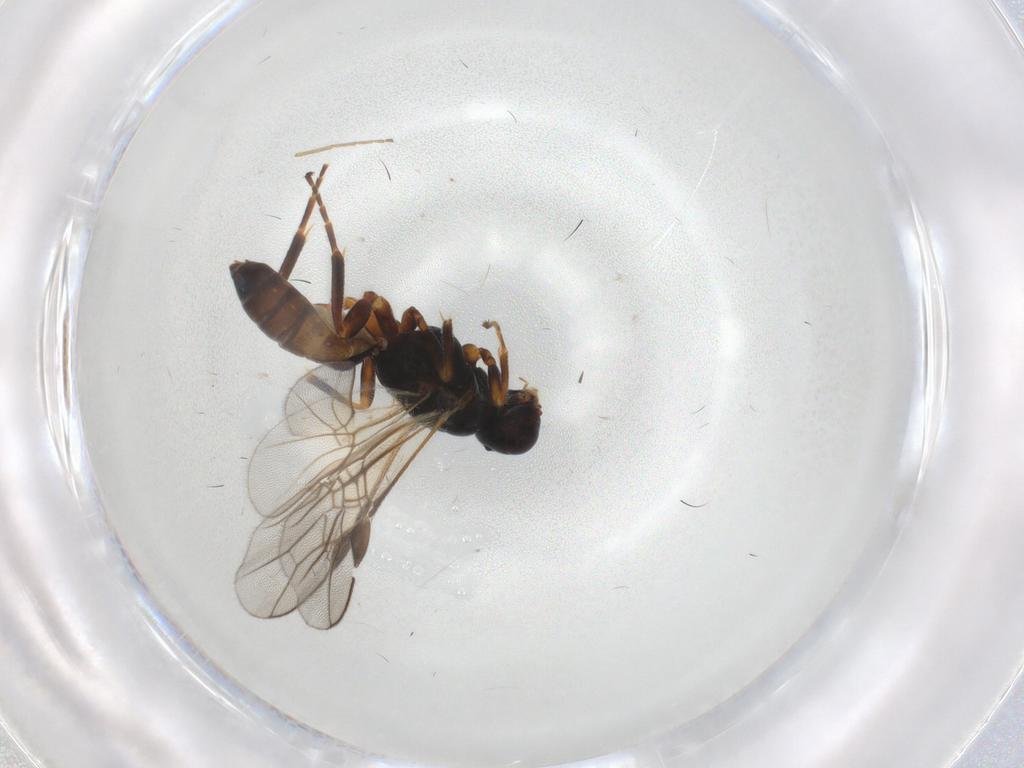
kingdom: Animalia
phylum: Arthropoda
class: Insecta
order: Hymenoptera
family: Braconidae
